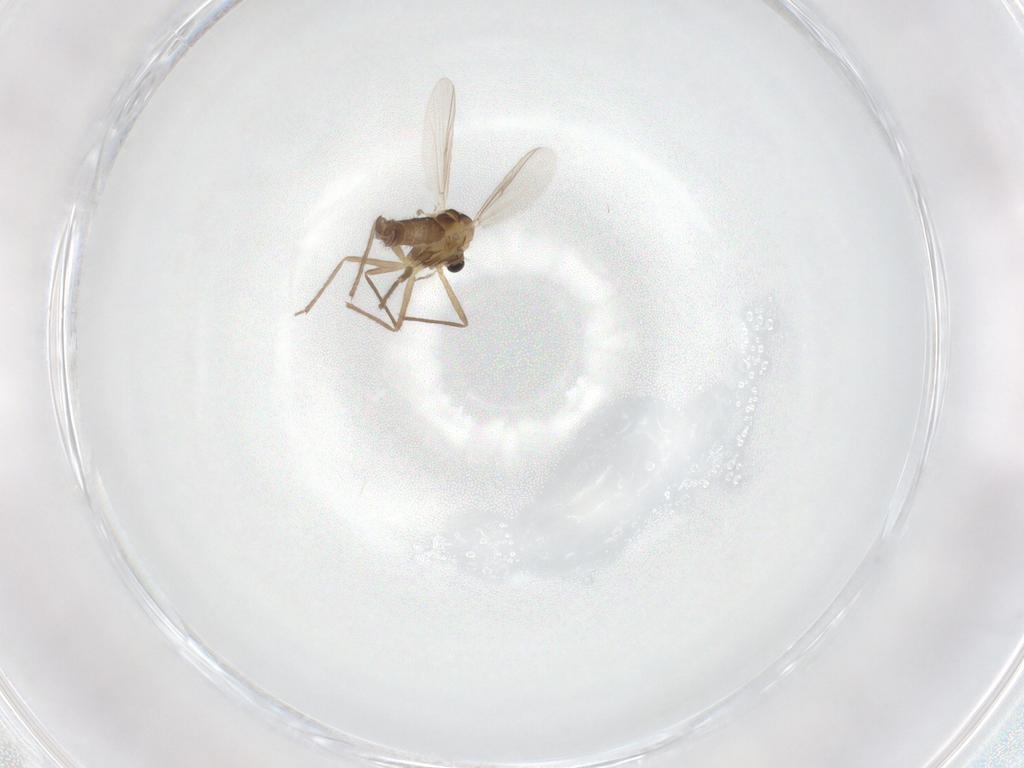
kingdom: Animalia
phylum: Arthropoda
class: Insecta
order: Diptera
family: Chironomidae
